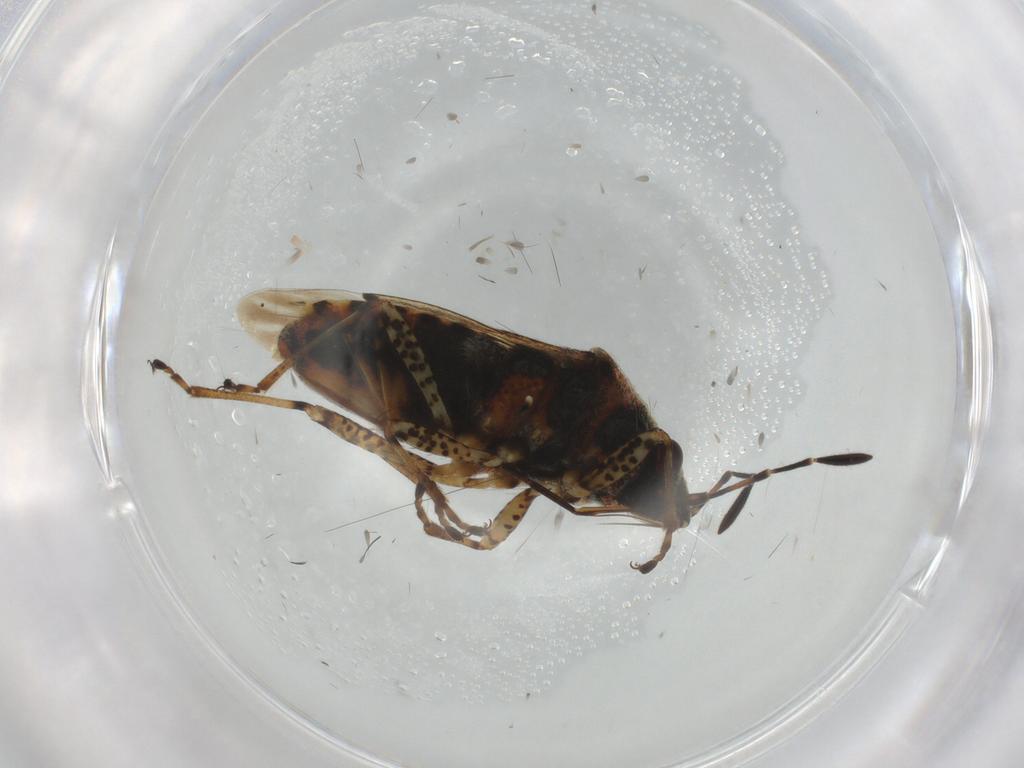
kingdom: Animalia
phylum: Arthropoda
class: Insecta
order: Hemiptera
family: Lygaeidae
